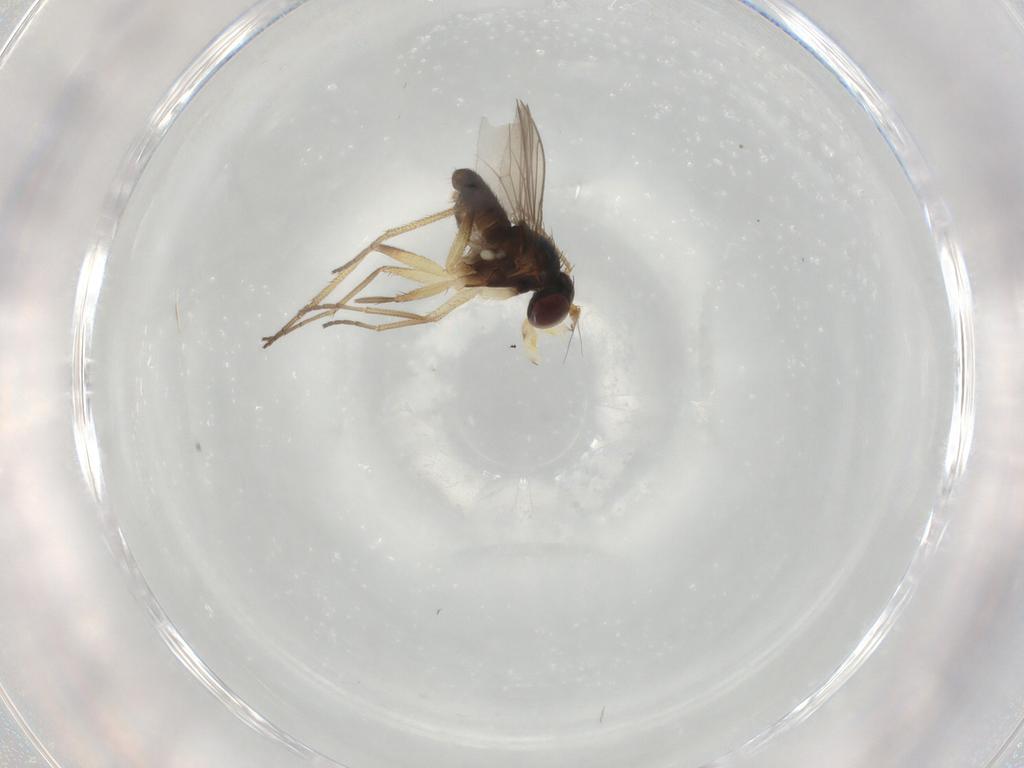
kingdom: Animalia
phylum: Arthropoda
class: Insecta
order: Diptera
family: Dolichopodidae
